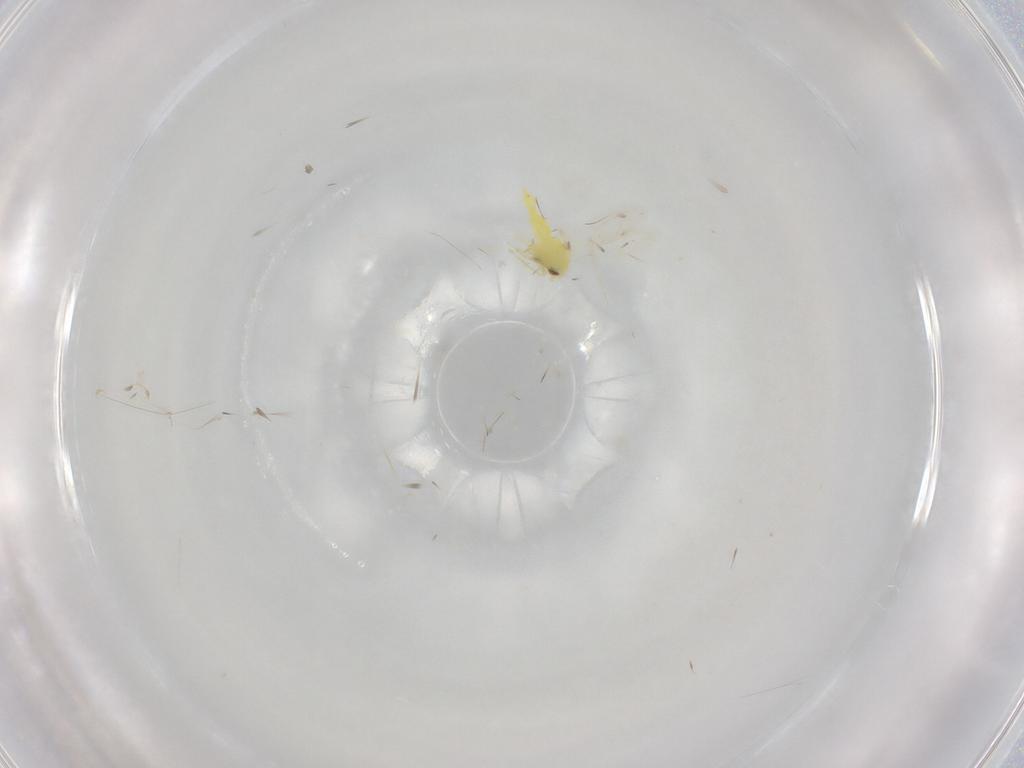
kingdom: Animalia
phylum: Arthropoda
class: Insecta
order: Hemiptera
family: Aleyrodidae
